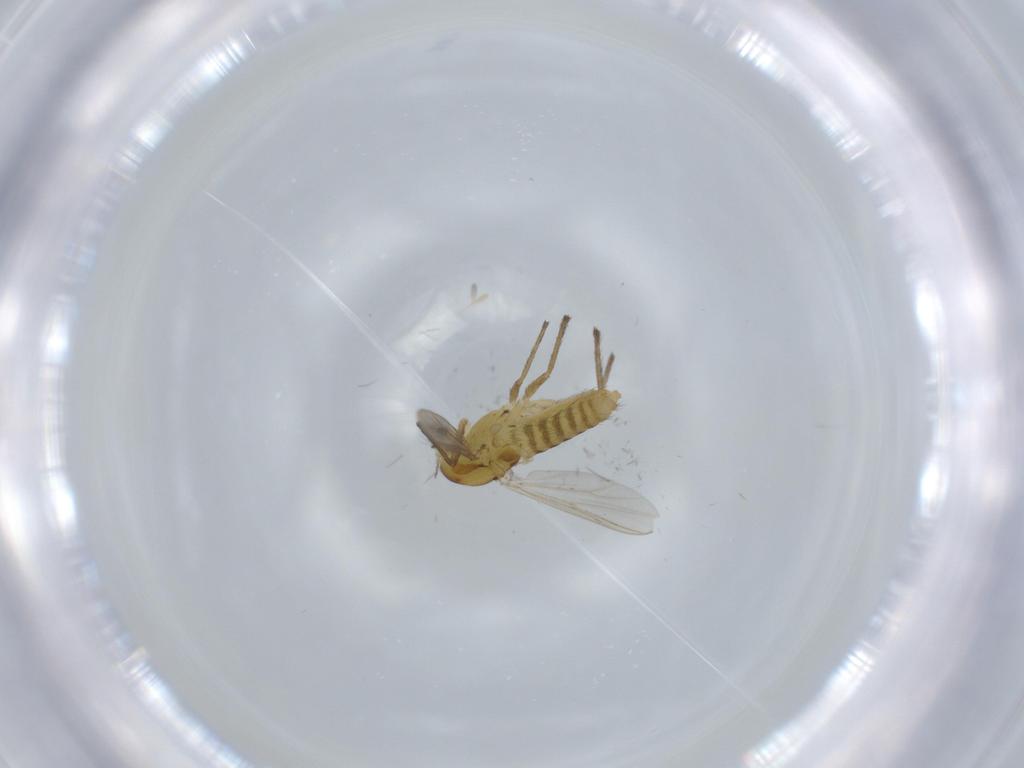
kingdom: Animalia
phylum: Arthropoda
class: Insecta
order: Diptera
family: Chironomidae
